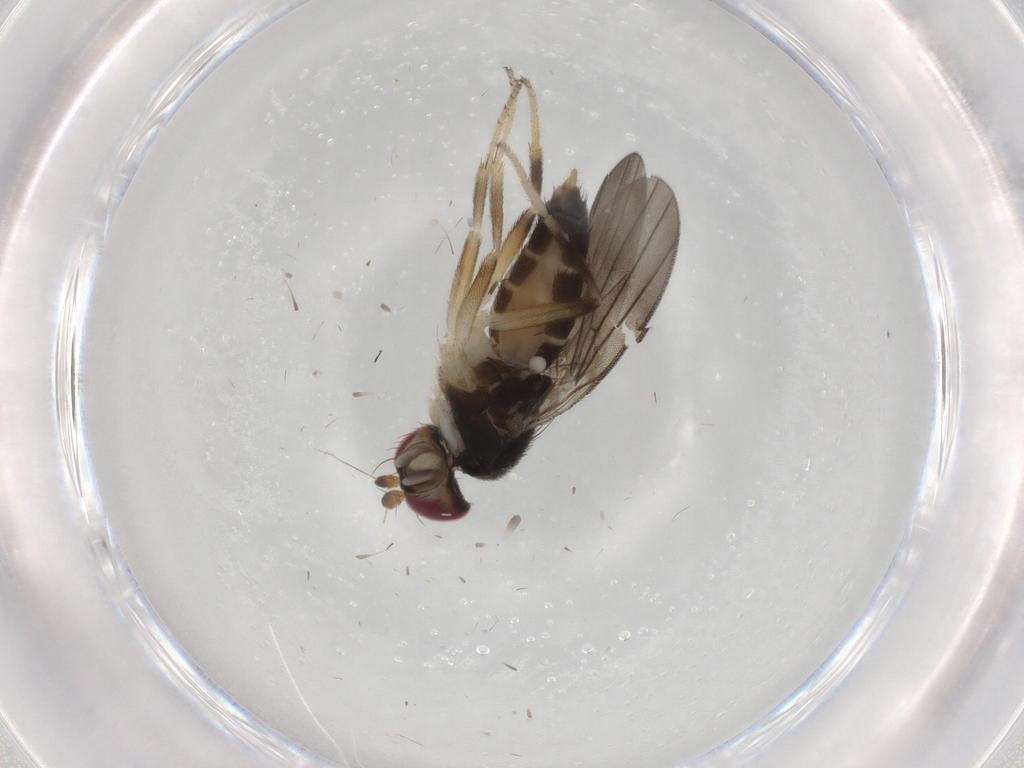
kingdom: Animalia
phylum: Arthropoda
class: Insecta
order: Diptera
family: Clusiidae
